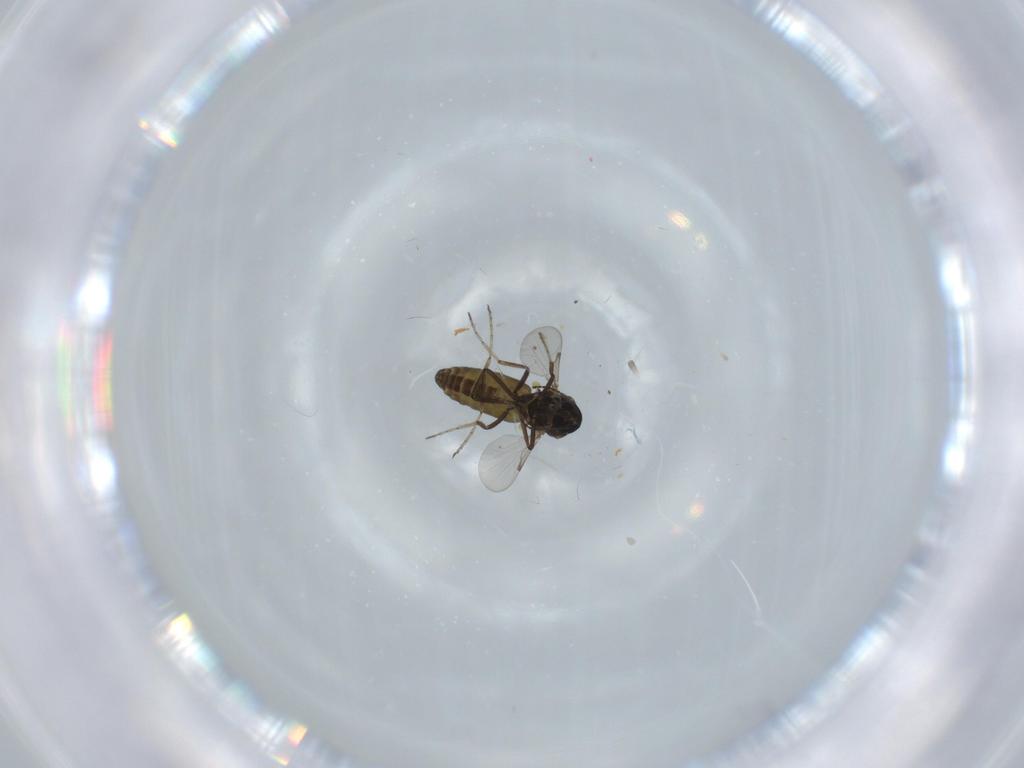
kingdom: Animalia
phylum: Arthropoda
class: Insecta
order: Diptera
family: Chironomidae
